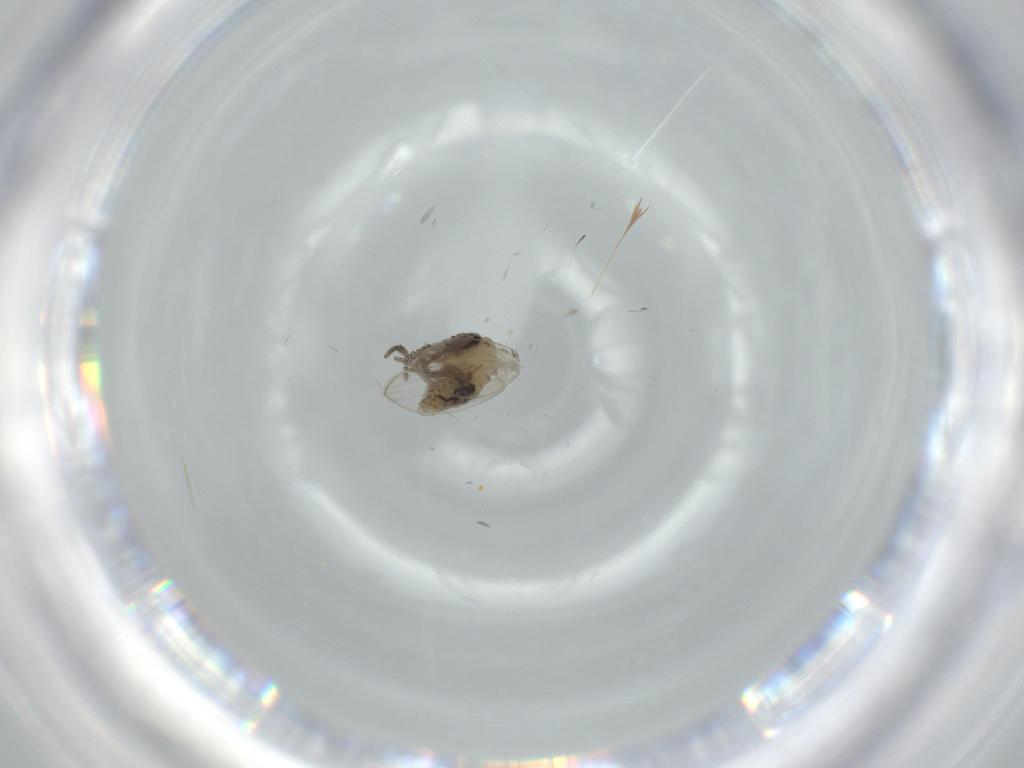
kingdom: Animalia
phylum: Arthropoda
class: Insecta
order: Diptera
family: Psychodidae
